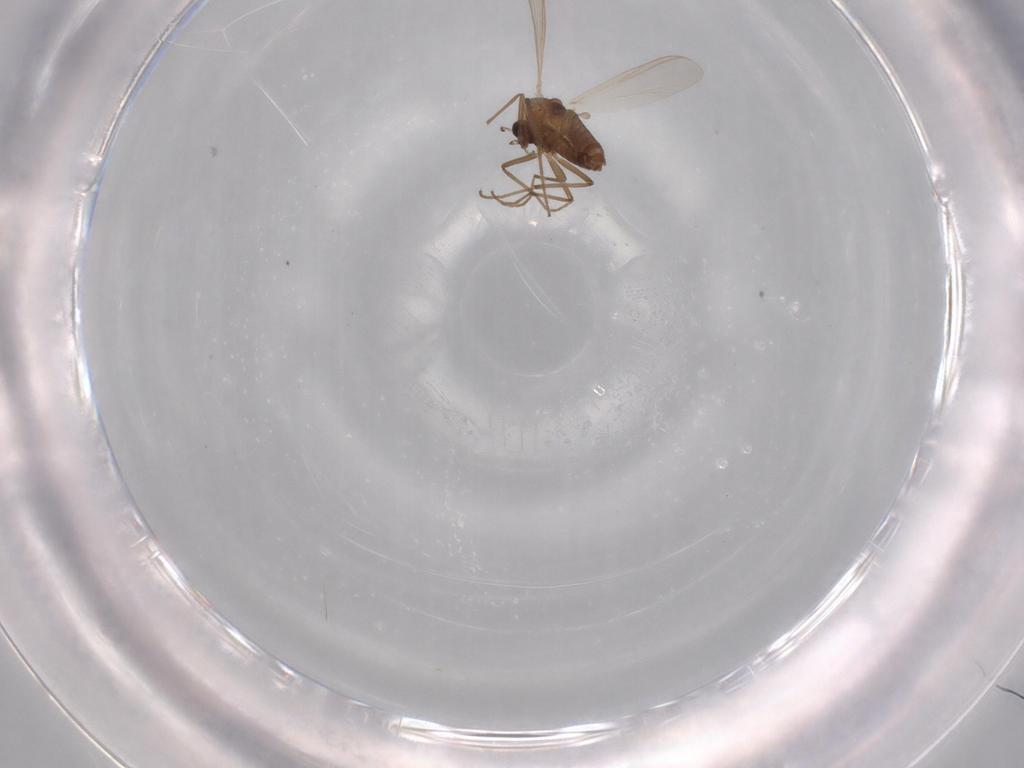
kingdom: Animalia
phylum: Arthropoda
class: Insecta
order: Diptera
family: Chironomidae
